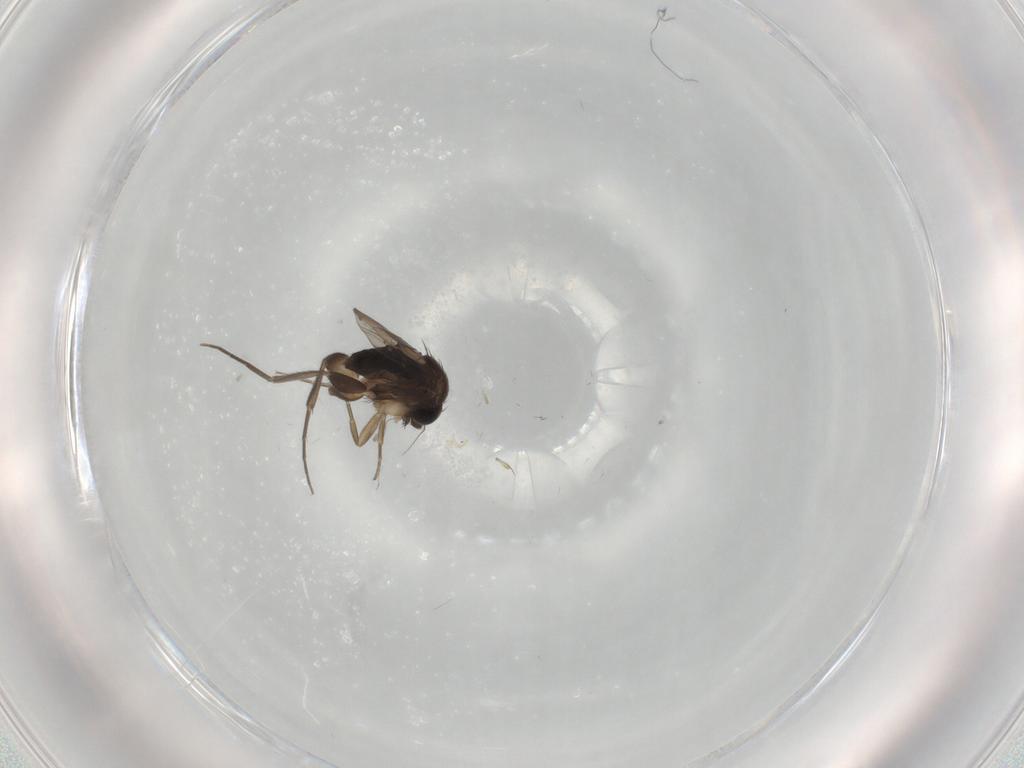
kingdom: Animalia
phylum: Arthropoda
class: Insecta
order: Diptera
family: Phoridae
